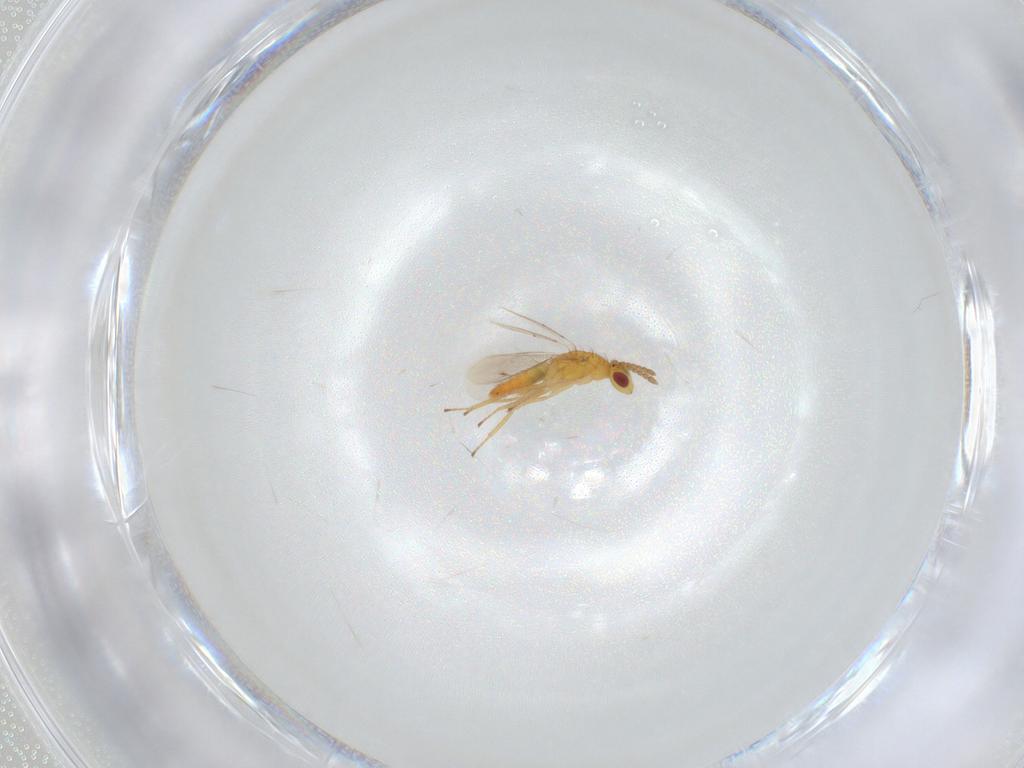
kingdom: Animalia
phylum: Arthropoda
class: Insecta
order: Hymenoptera
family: Eulophidae
